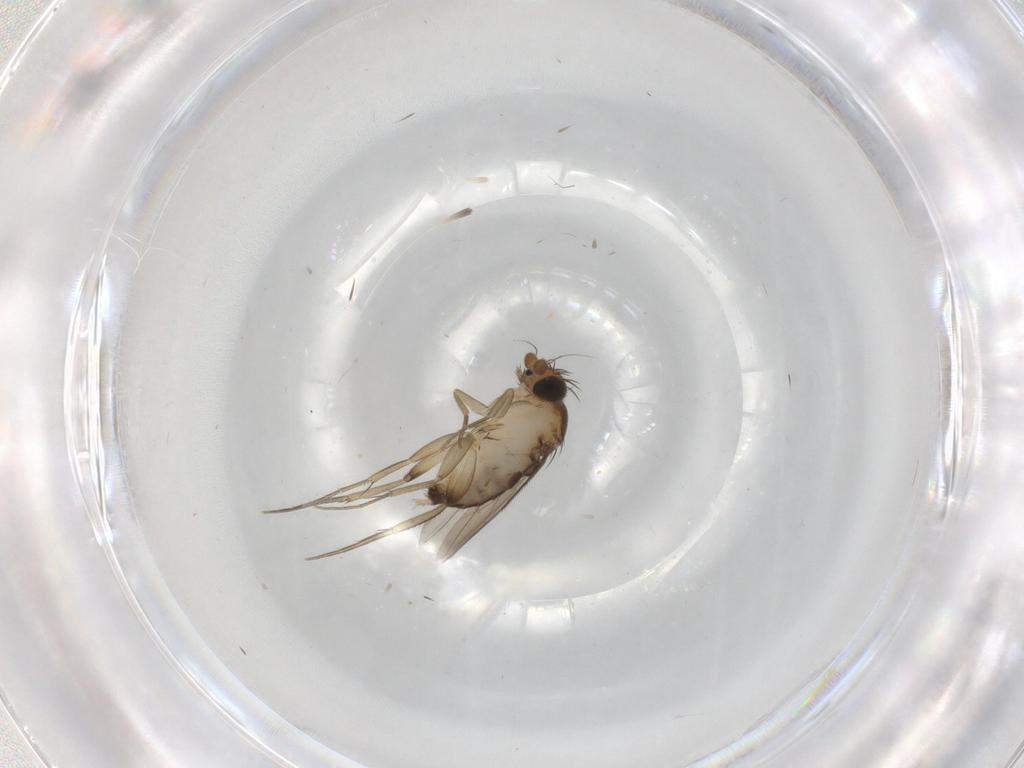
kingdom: Animalia
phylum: Arthropoda
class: Insecta
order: Diptera
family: Phoridae
